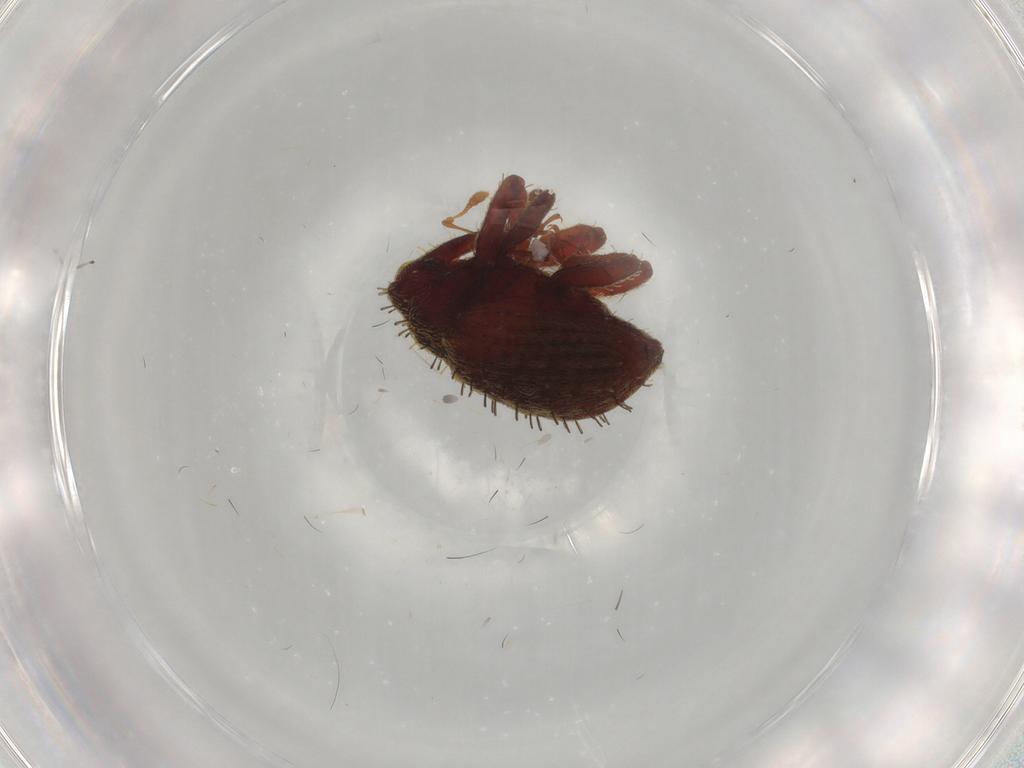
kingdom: Animalia
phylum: Arthropoda
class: Insecta
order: Coleoptera
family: Curculionidae
